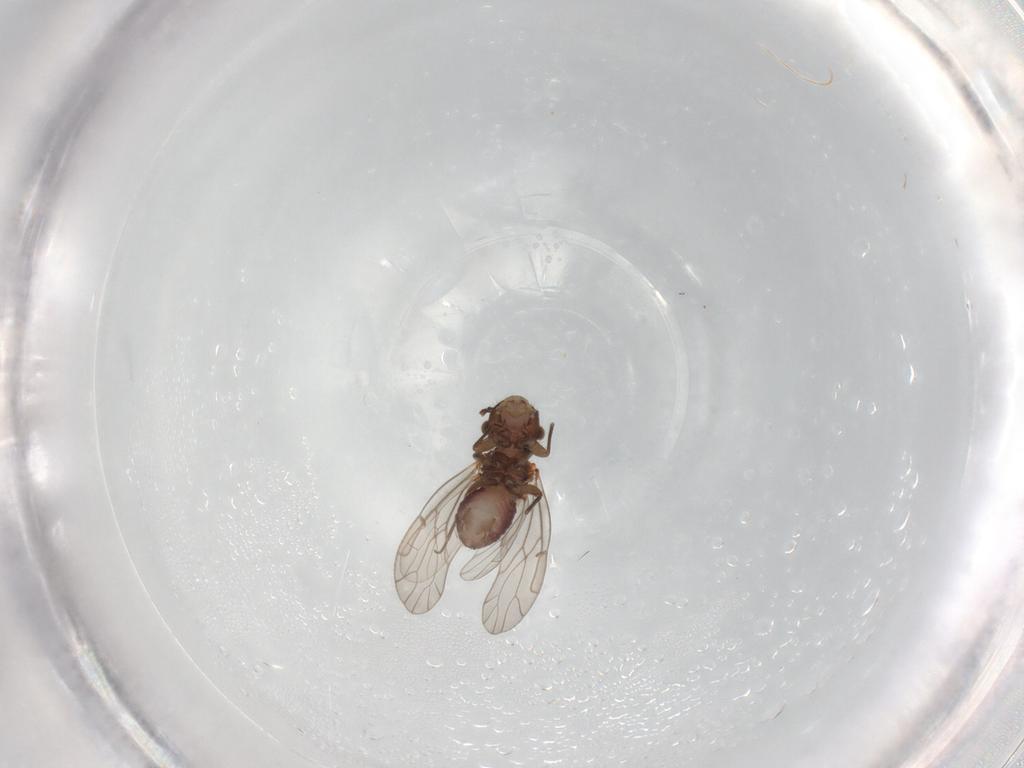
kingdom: Animalia
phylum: Arthropoda
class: Insecta
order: Psocodea
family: Ectopsocidae
